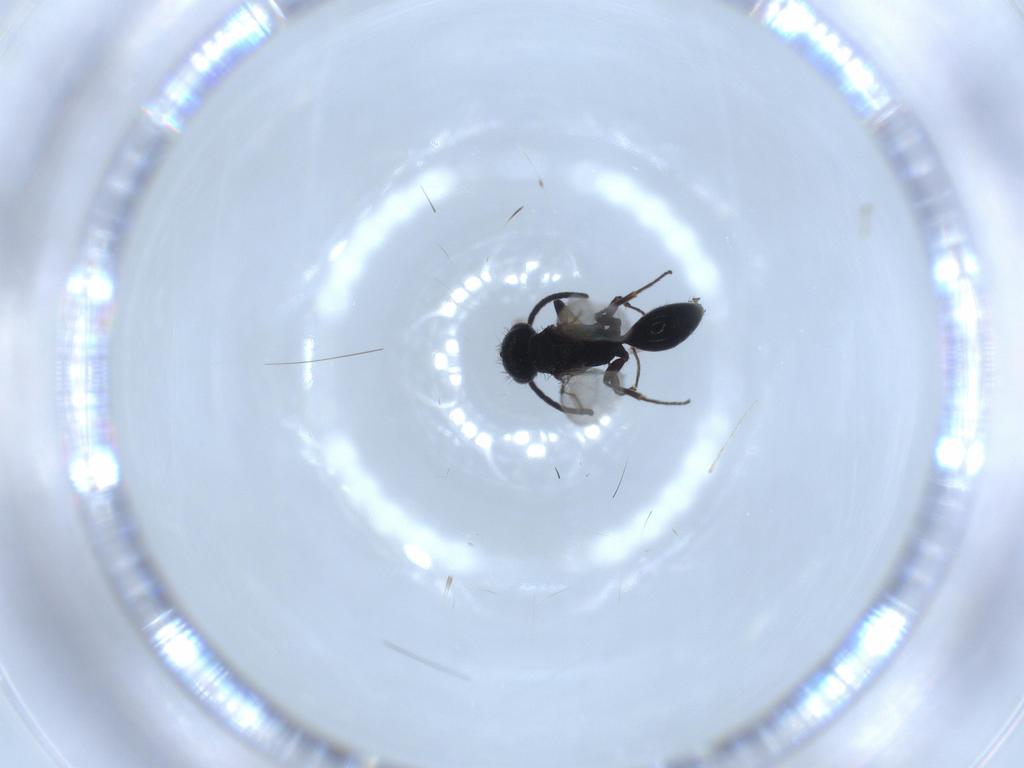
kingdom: Animalia
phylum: Arthropoda
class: Insecta
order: Hymenoptera
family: Bethylidae
